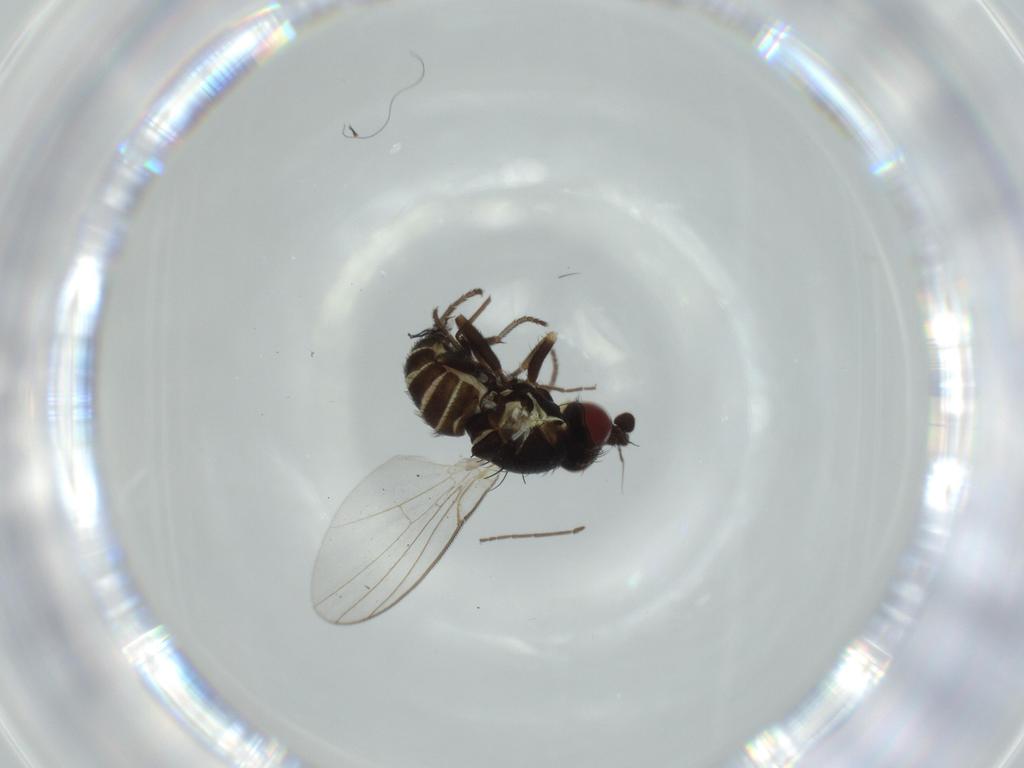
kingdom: Animalia
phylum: Arthropoda
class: Insecta
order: Diptera
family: Chironomidae
